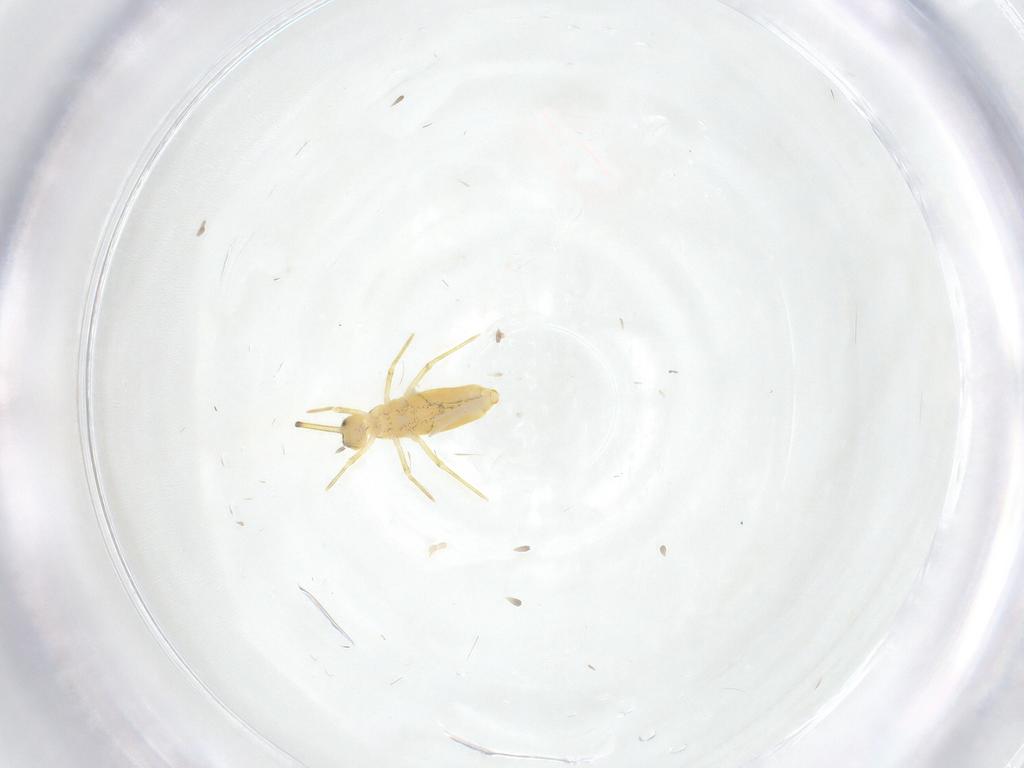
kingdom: Animalia
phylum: Arthropoda
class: Collembola
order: Entomobryomorpha
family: Paronellidae
